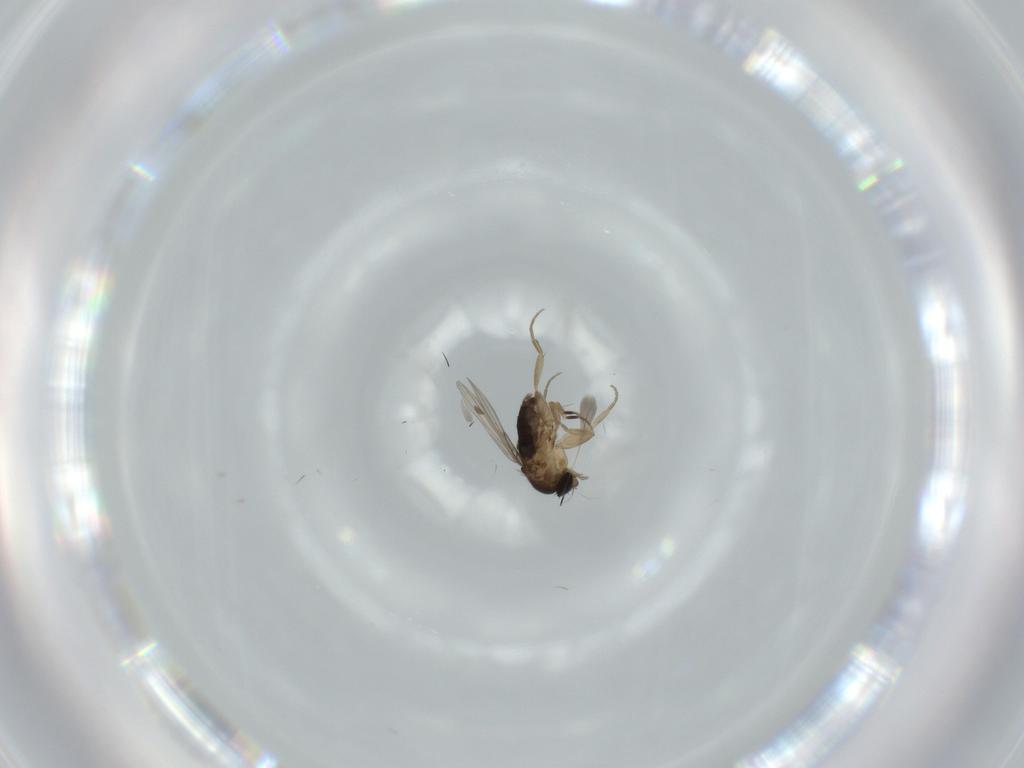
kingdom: Animalia
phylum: Arthropoda
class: Insecta
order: Diptera
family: Phoridae
